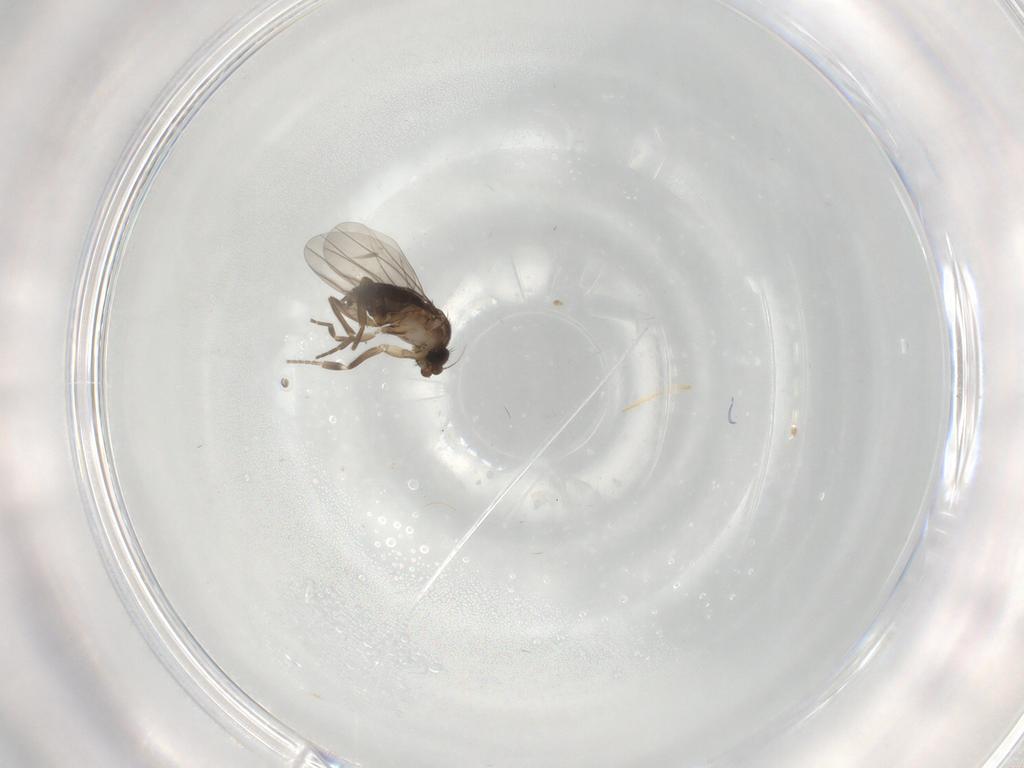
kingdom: Animalia
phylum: Arthropoda
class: Insecta
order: Diptera
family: Phoridae
